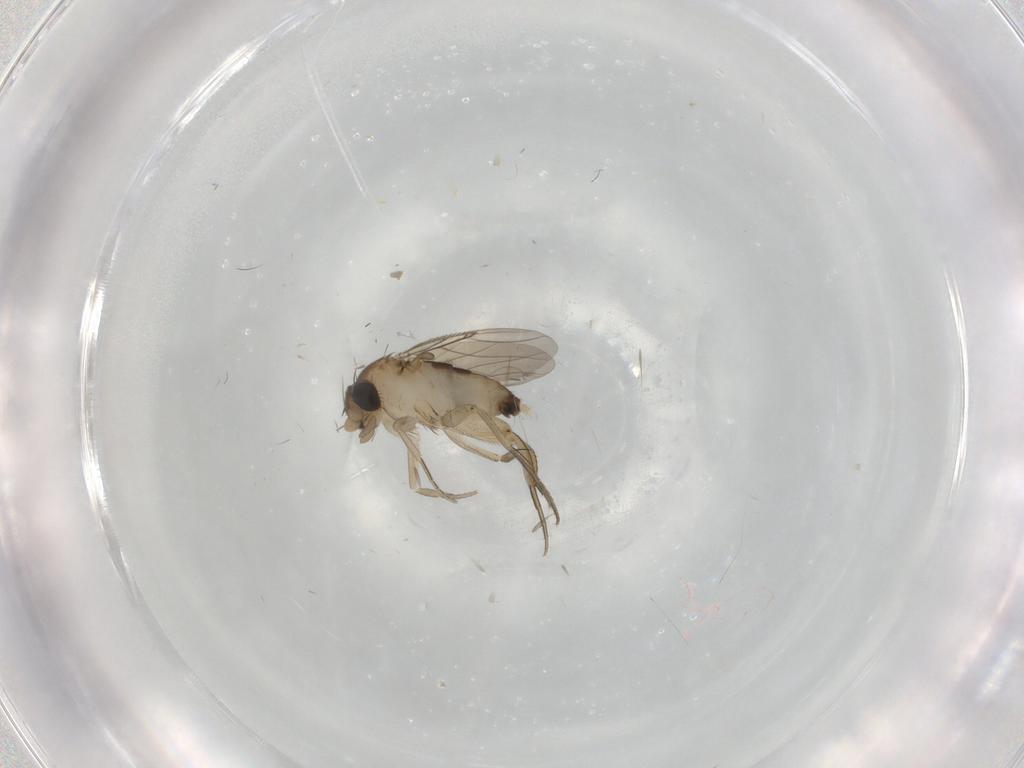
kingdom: Animalia
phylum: Arthropoda
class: Insecta
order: Diptera
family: Phoridae
